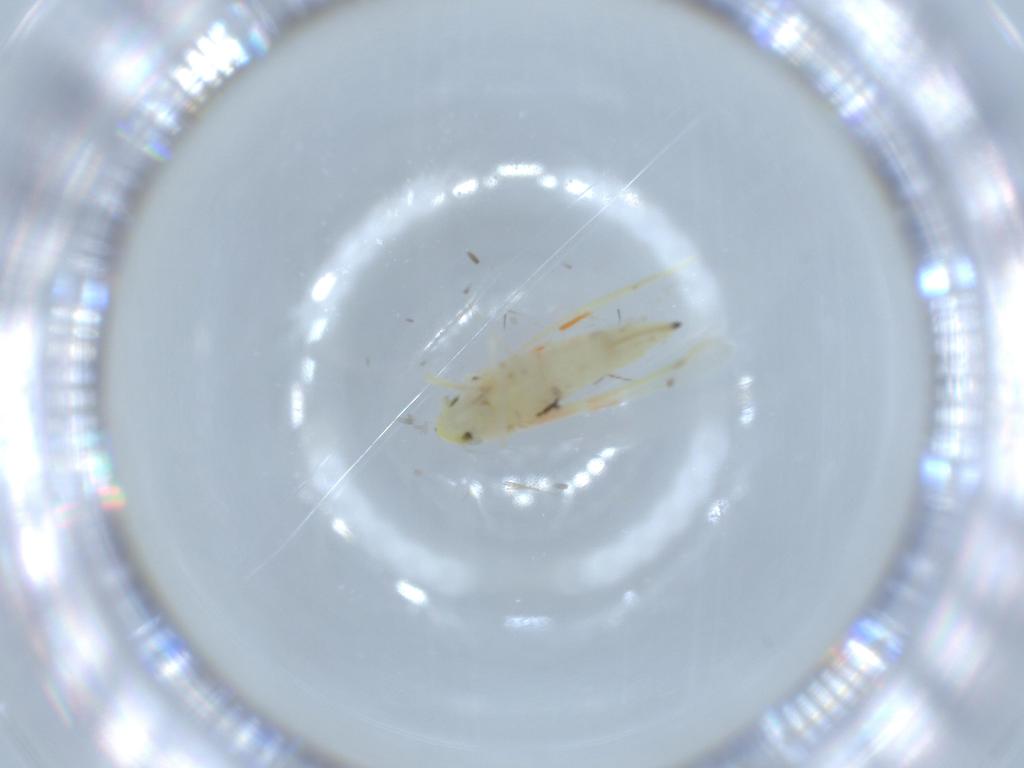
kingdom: Animalia
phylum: Arthropoda
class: Insecta
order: Hemiptera
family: Cicadellidae
